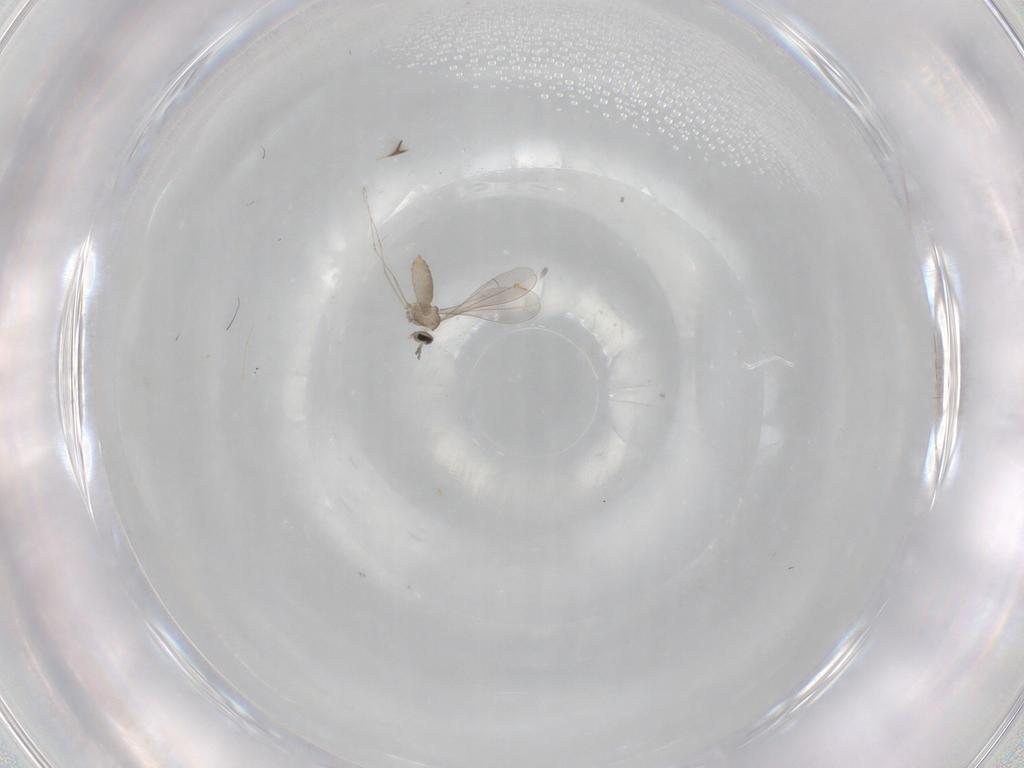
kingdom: Animalia
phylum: Arthropoda
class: Insecta
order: Diptera
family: Cecidomyiidae
